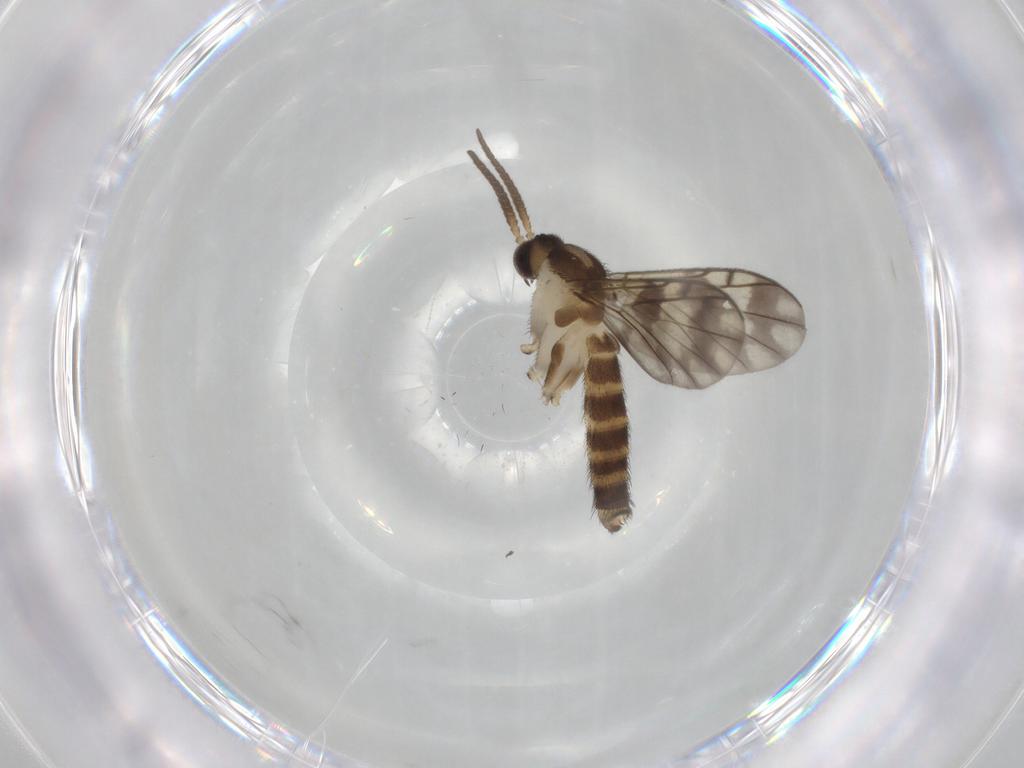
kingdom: Animalia
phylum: Arthropoda
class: Insecta
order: Diptera
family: Keroplatidae
